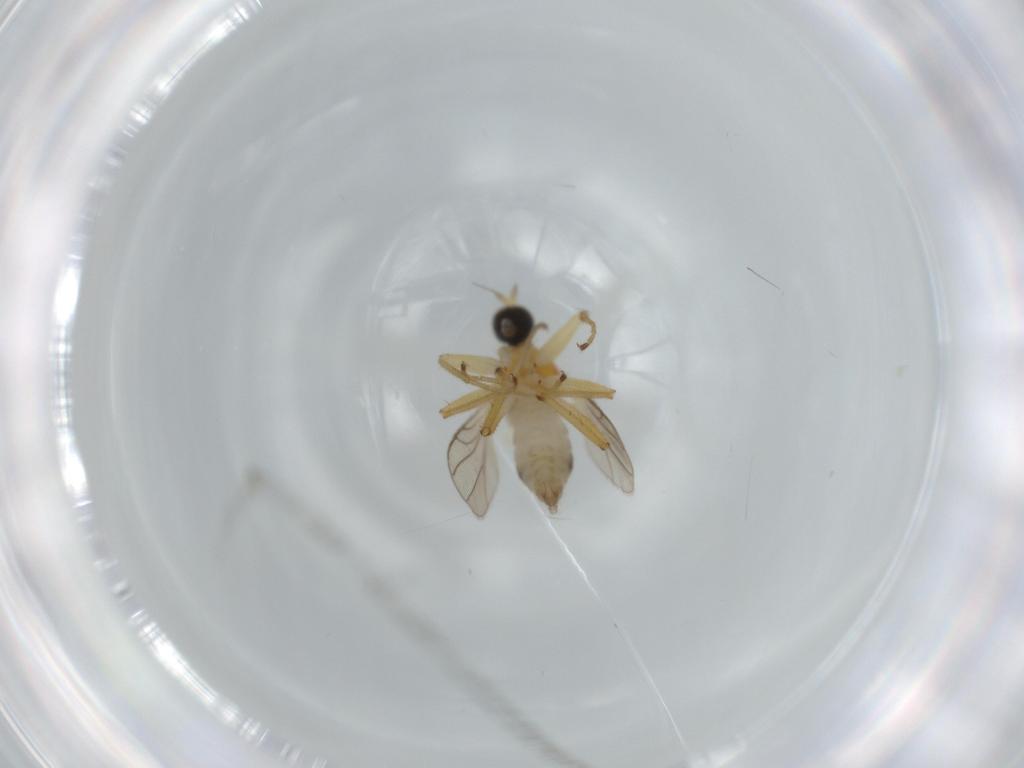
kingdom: Animalia
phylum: Arthropoda
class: Insecta
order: Diptera
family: Hybotidae
